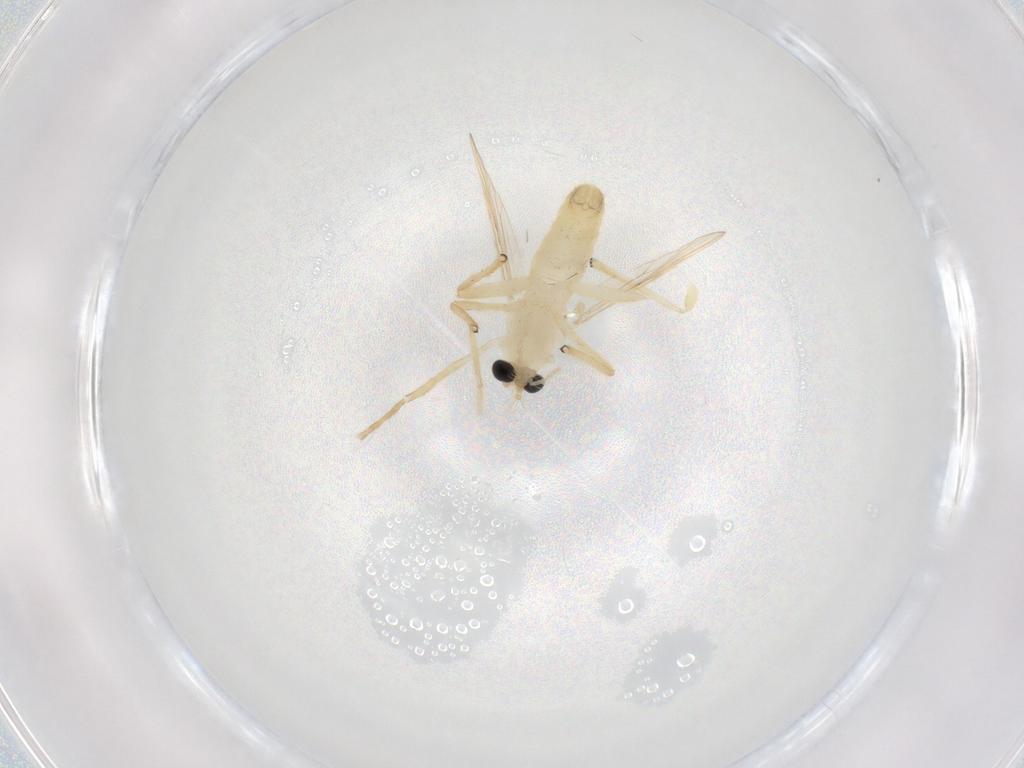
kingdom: Animalia
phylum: Arthropoda
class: Insecta
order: Diptera
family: Chironomidae
